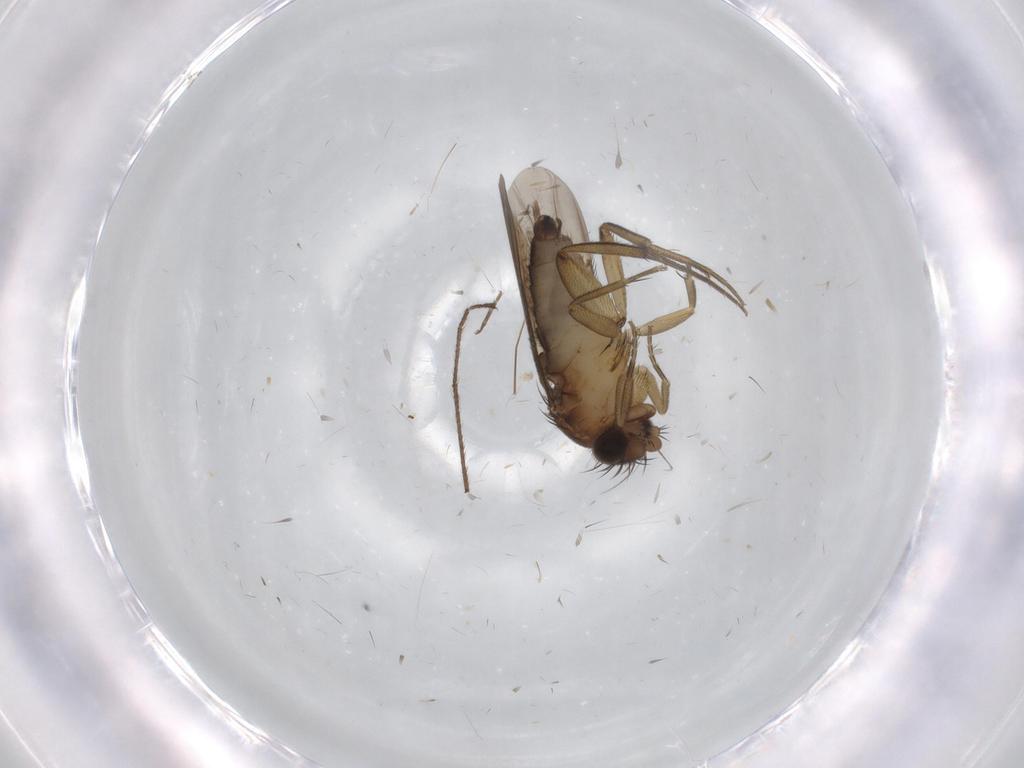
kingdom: Animalia
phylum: Arthropoda
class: Insecta
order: Diptera
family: Phoridae
